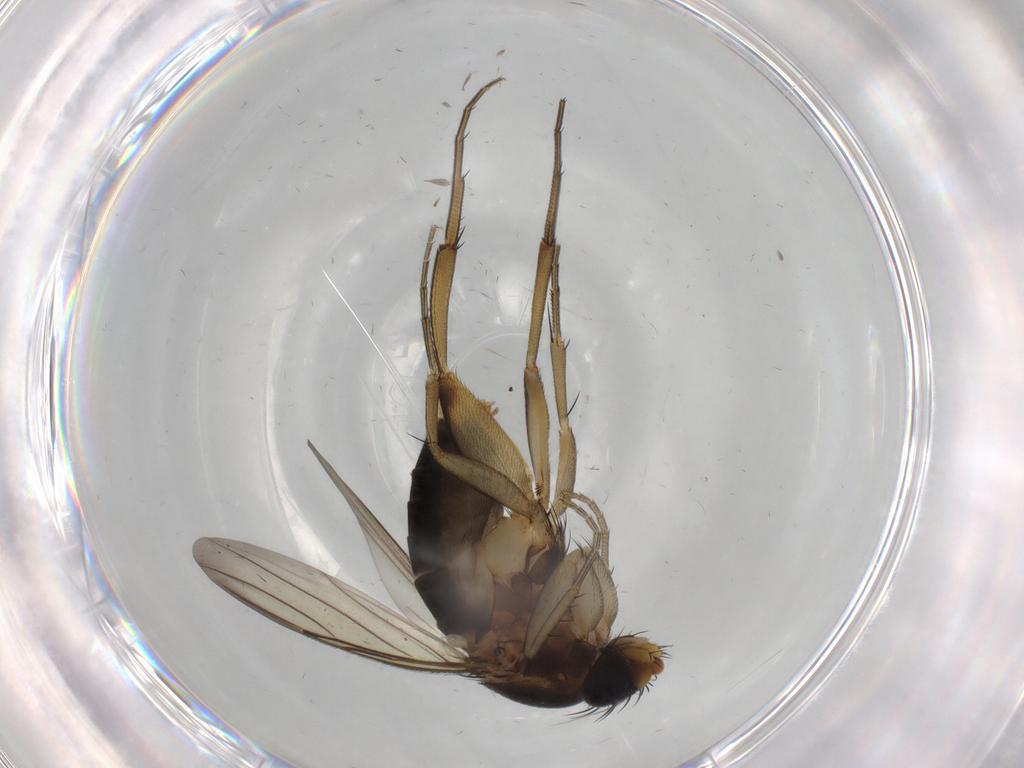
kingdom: Animalia
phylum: Arthropoda
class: Insecta
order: Diptera
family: Phoridae
